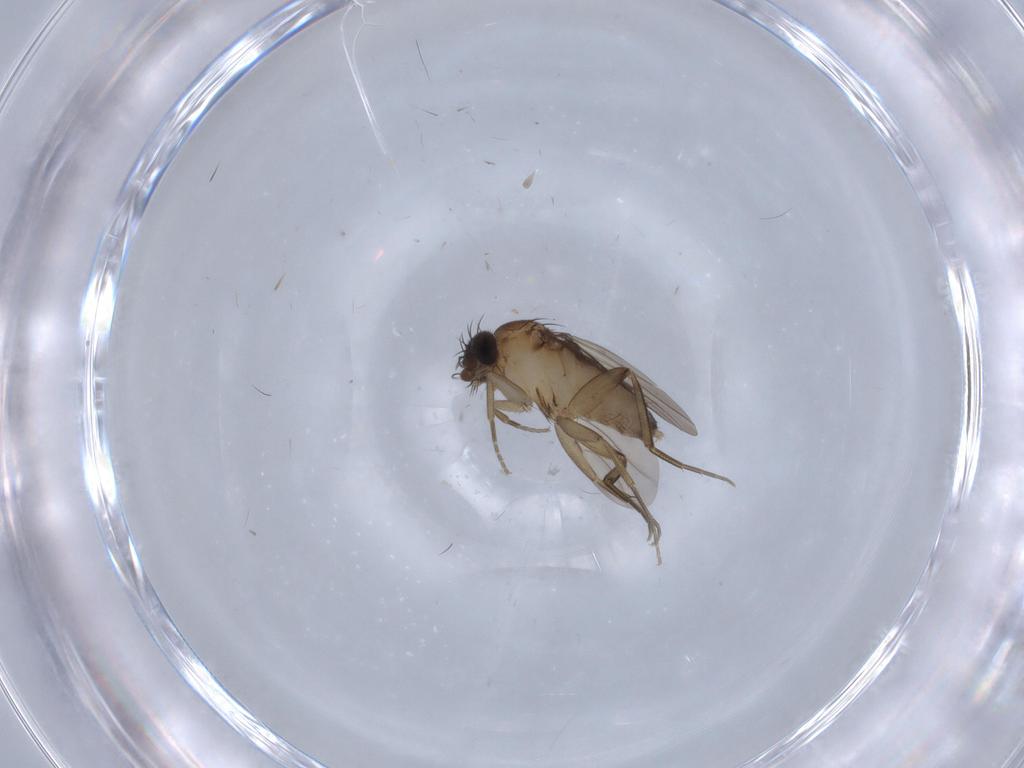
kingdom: Animalia
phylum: Arthropoda
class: Insecta
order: Diptera
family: Phoridae
